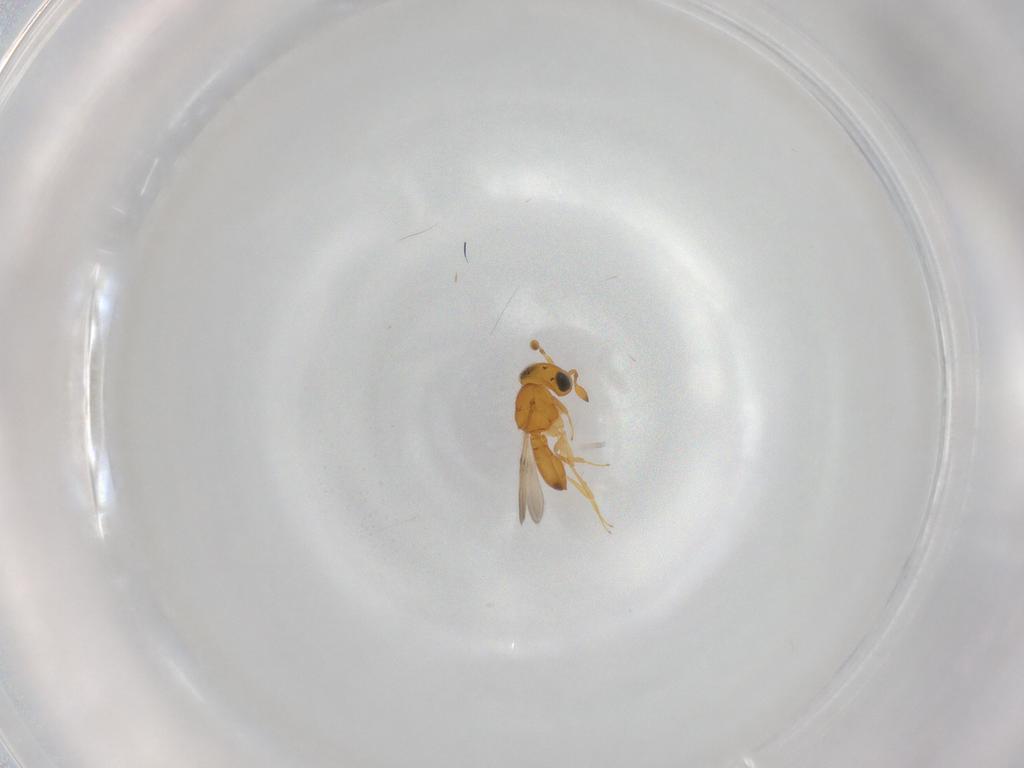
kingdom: Animalia
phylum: Arthropoda
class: Insecta
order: Hymenoptera
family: Scelionidae
